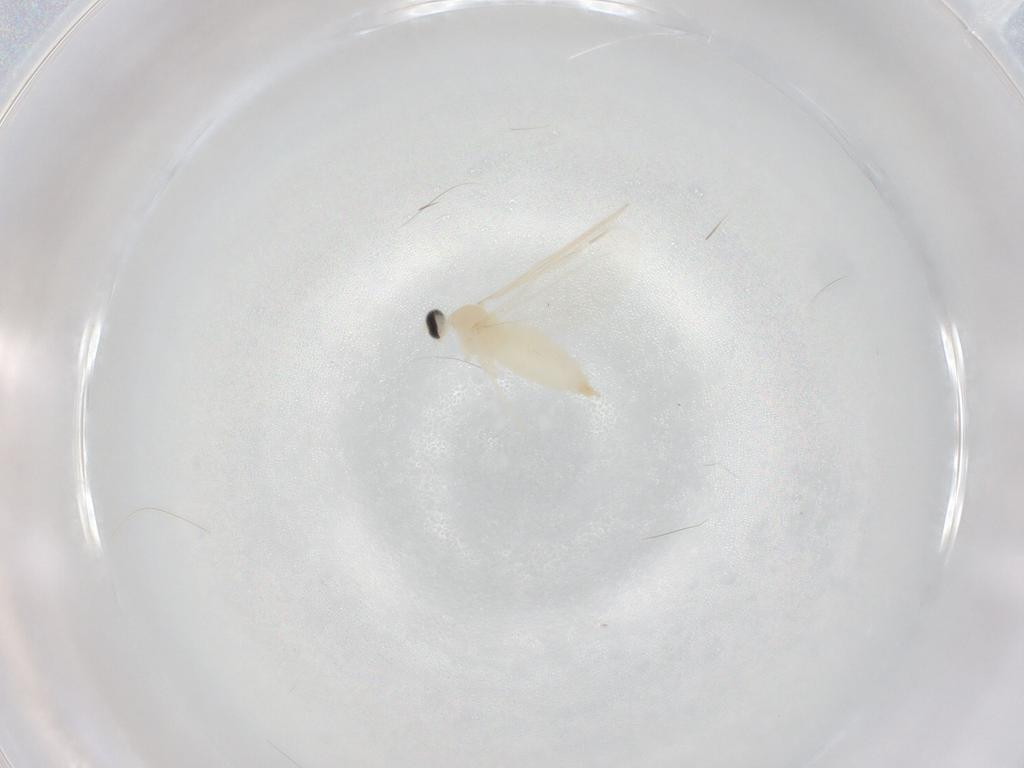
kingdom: Animalia
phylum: Arthropoda
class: Insecta
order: Diptera
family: Cecidomyiidae
